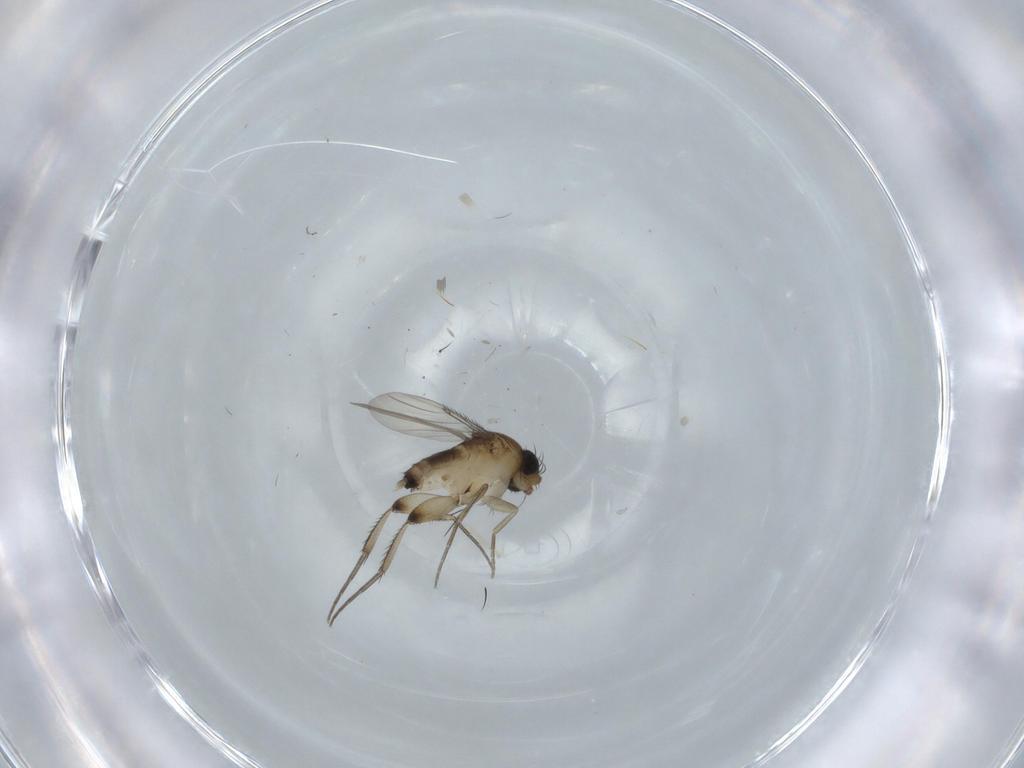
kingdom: Animalia
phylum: Arthropoda
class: Insecta
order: Diptera
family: Phoridae
